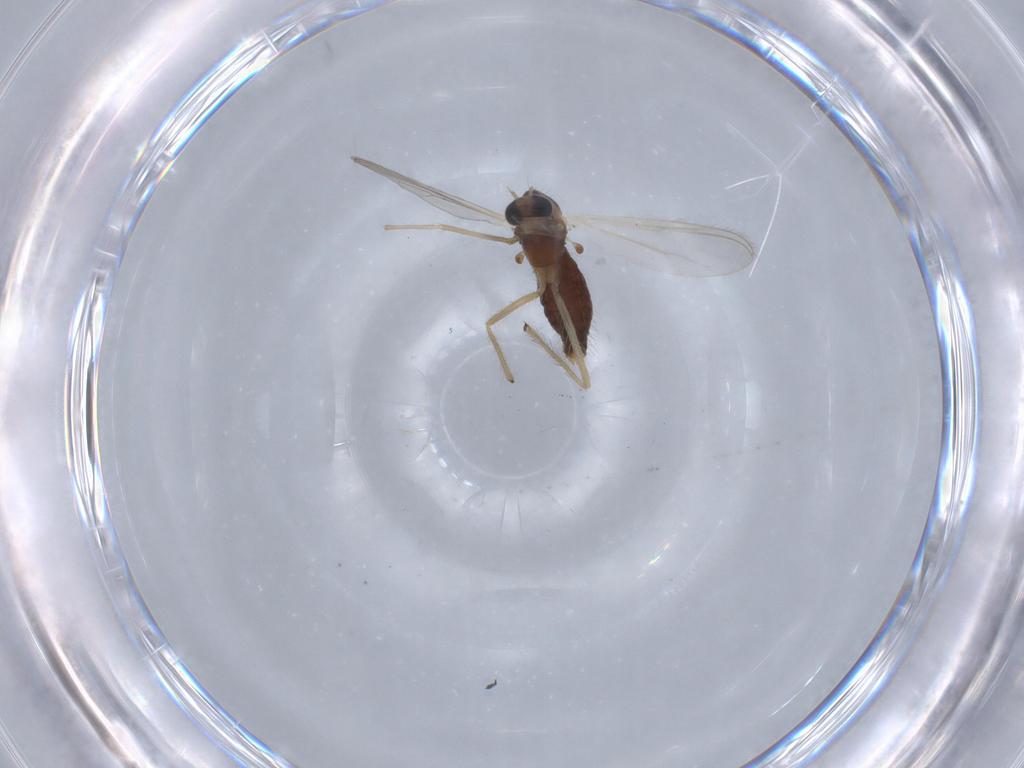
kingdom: Animalia
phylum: Arthropoda
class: Insecta
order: Diptera
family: Chironomidae
